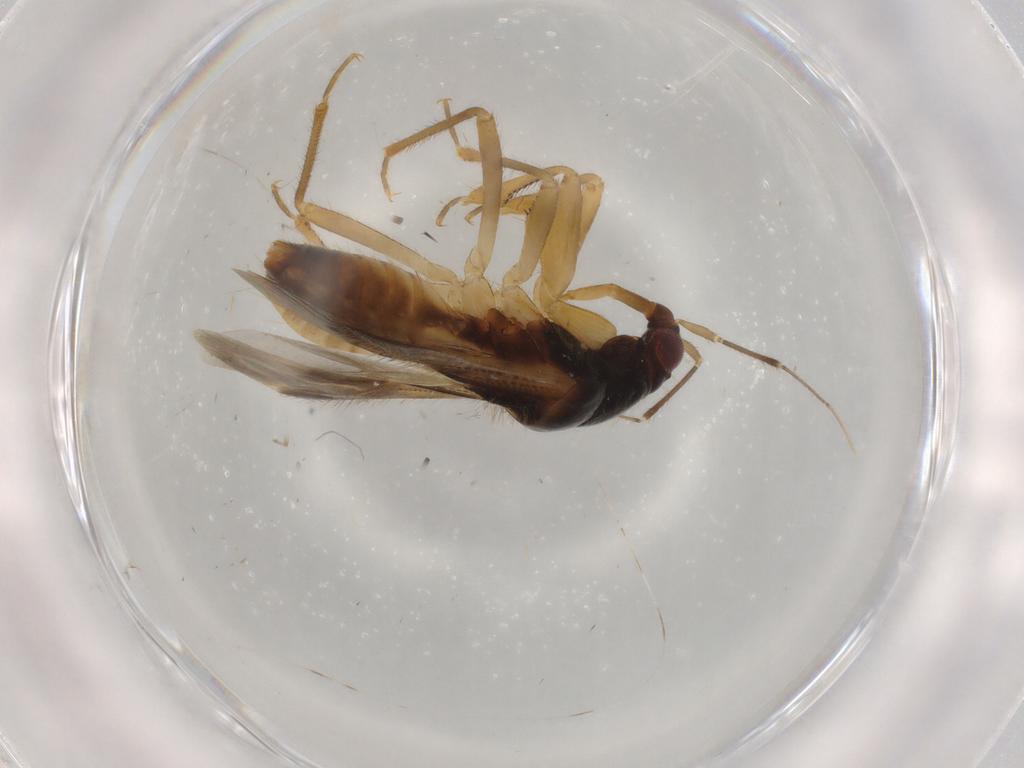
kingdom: Animalia
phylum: Arthropoda
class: Insecta
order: Hemiptera
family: Nabidae
